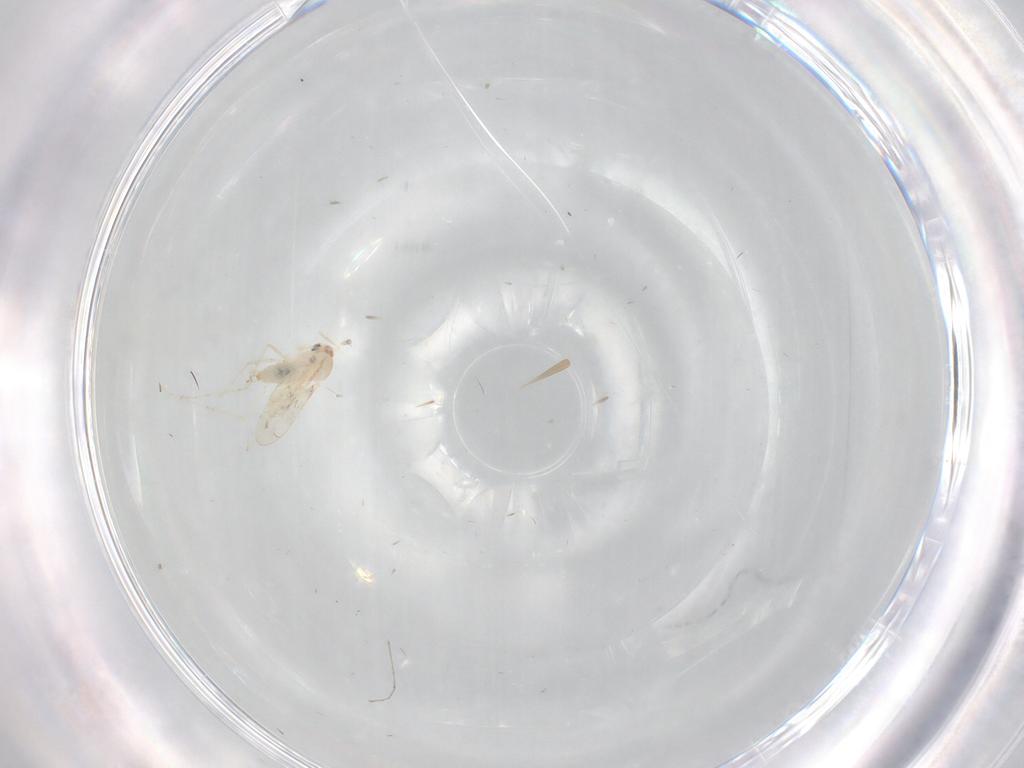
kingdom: Animalia
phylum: Arthropoda
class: Insecta
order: Diptera
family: Cecidomyiidae
